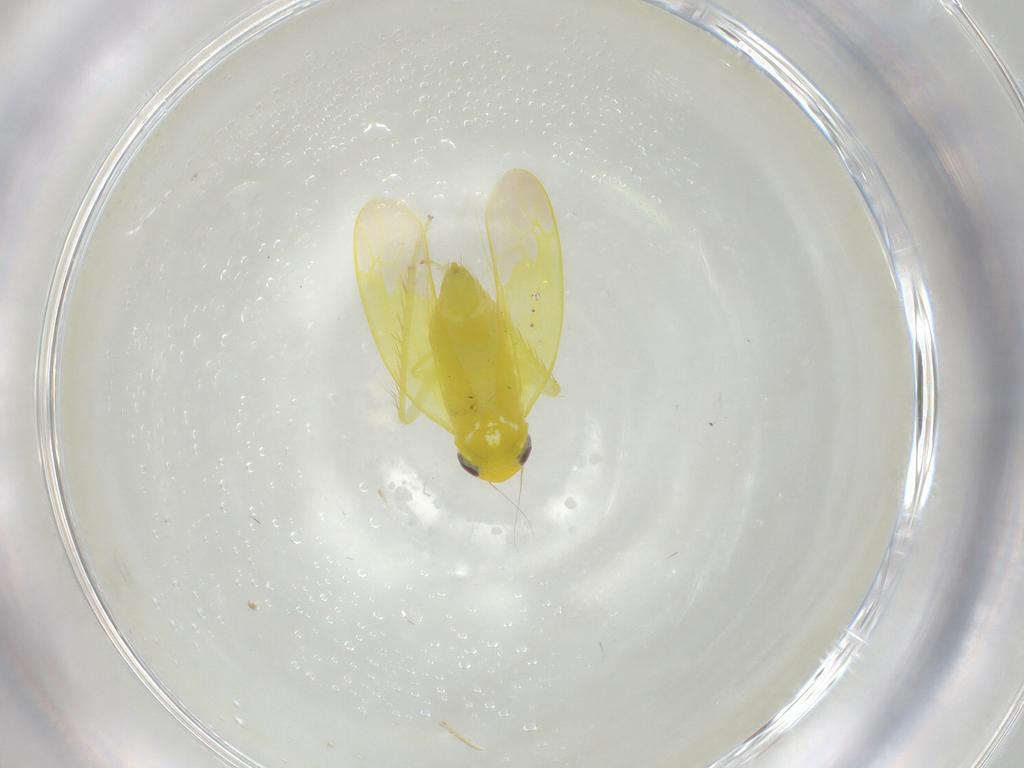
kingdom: Animalia
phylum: Arthropoda
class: Insecta
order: Hemiptera
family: Cicadellidae
